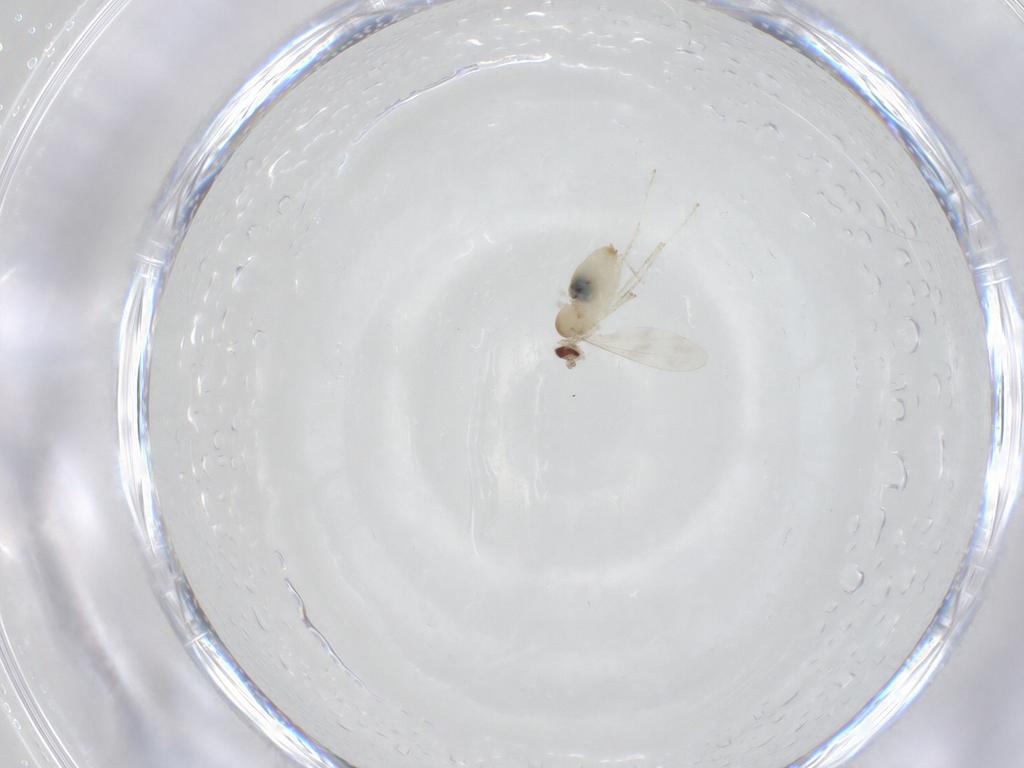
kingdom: Animalia
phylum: Arthropoda
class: Insecta
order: Diptera
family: Cecidomyiidae
